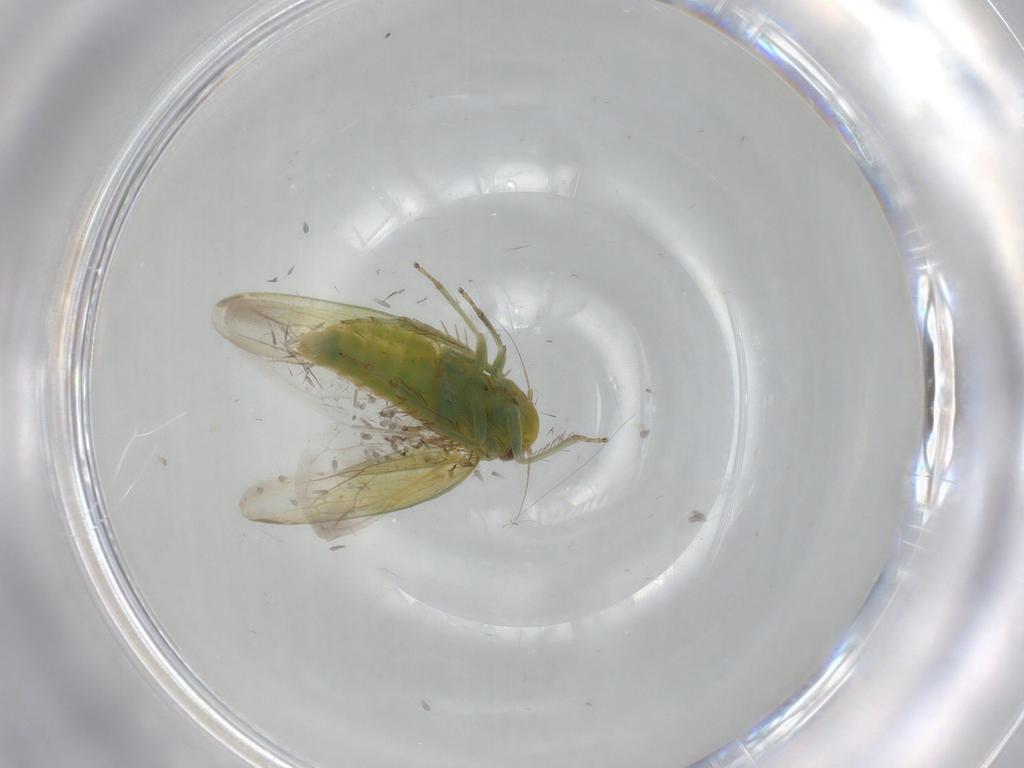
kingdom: Animalia
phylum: Arthropoda
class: Insecta
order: Hemiptera
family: Cicadellidae
